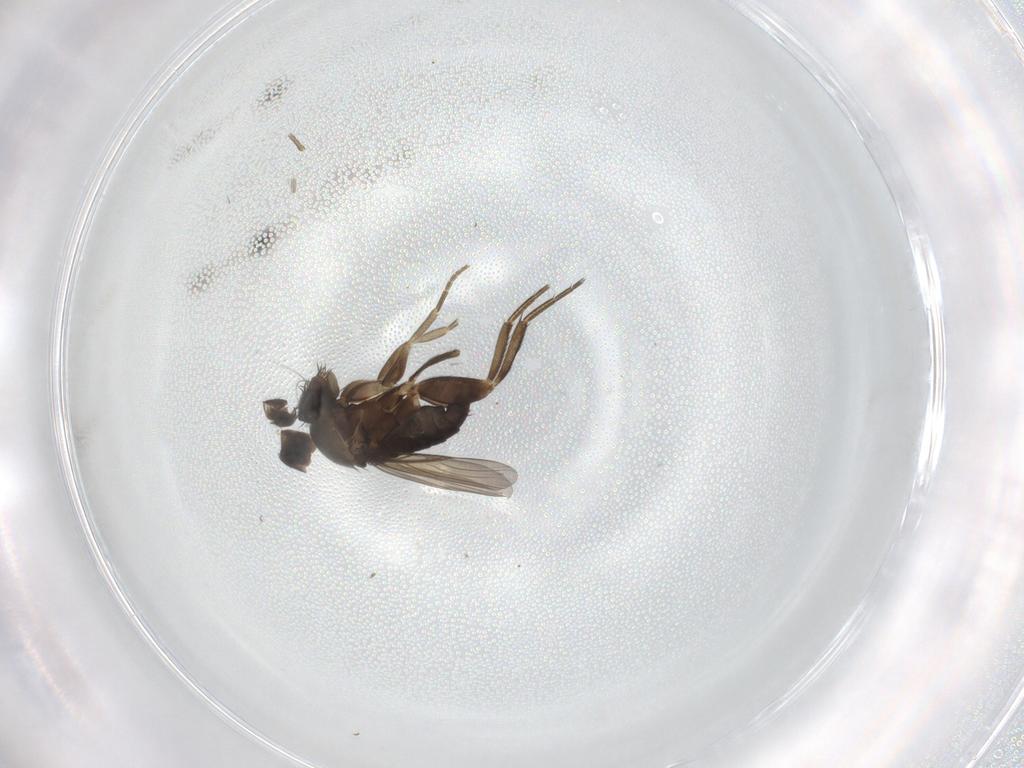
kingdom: Animalia
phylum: Arthropoda
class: Insecta
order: Diptera
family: Phoridae
